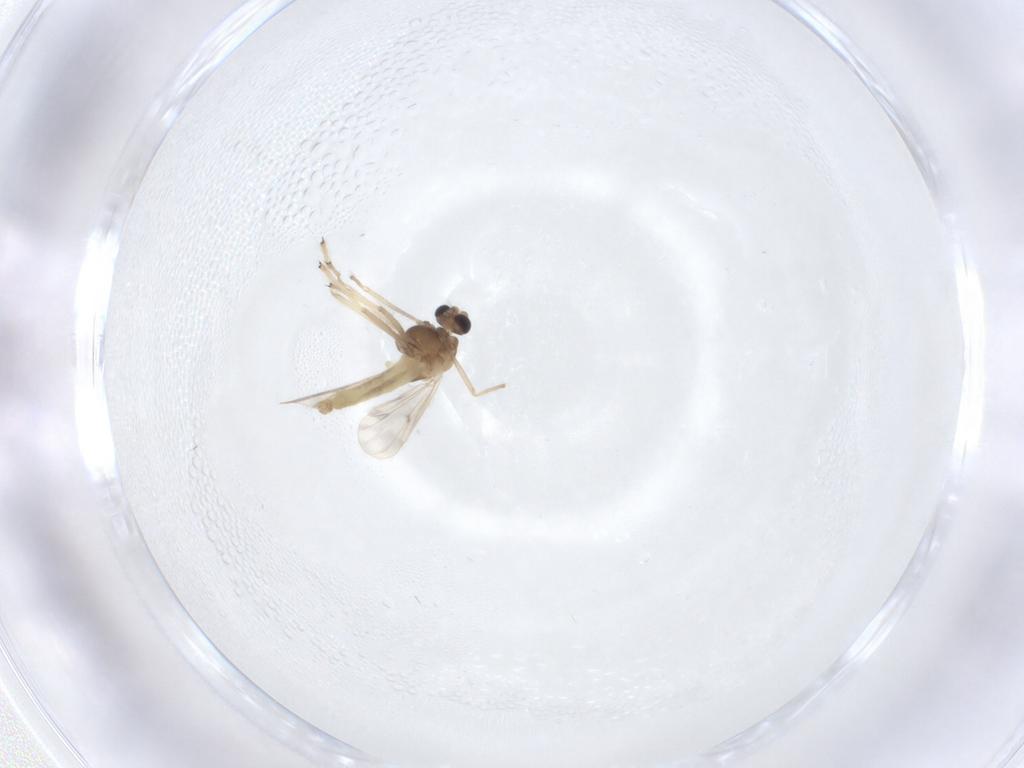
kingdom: Animalia
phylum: Arthropoda
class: Insecta
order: Diptera
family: Chironomidae
